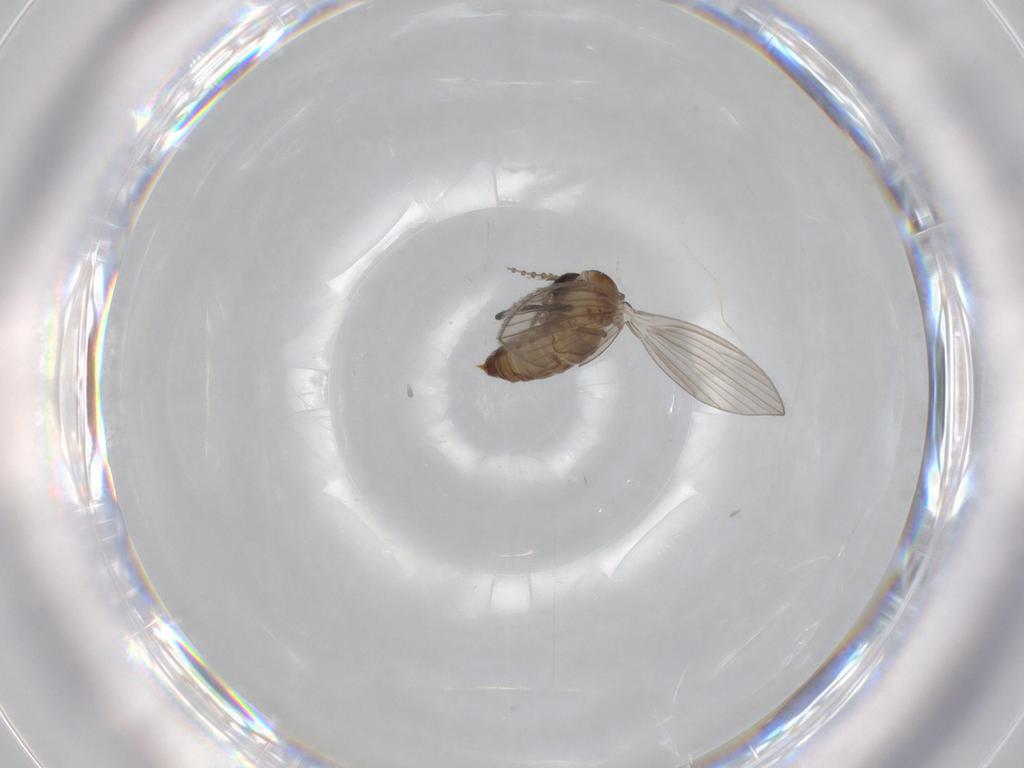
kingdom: Animalia
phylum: Arthropoda
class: Insecta
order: Diptera
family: Psychodidae
